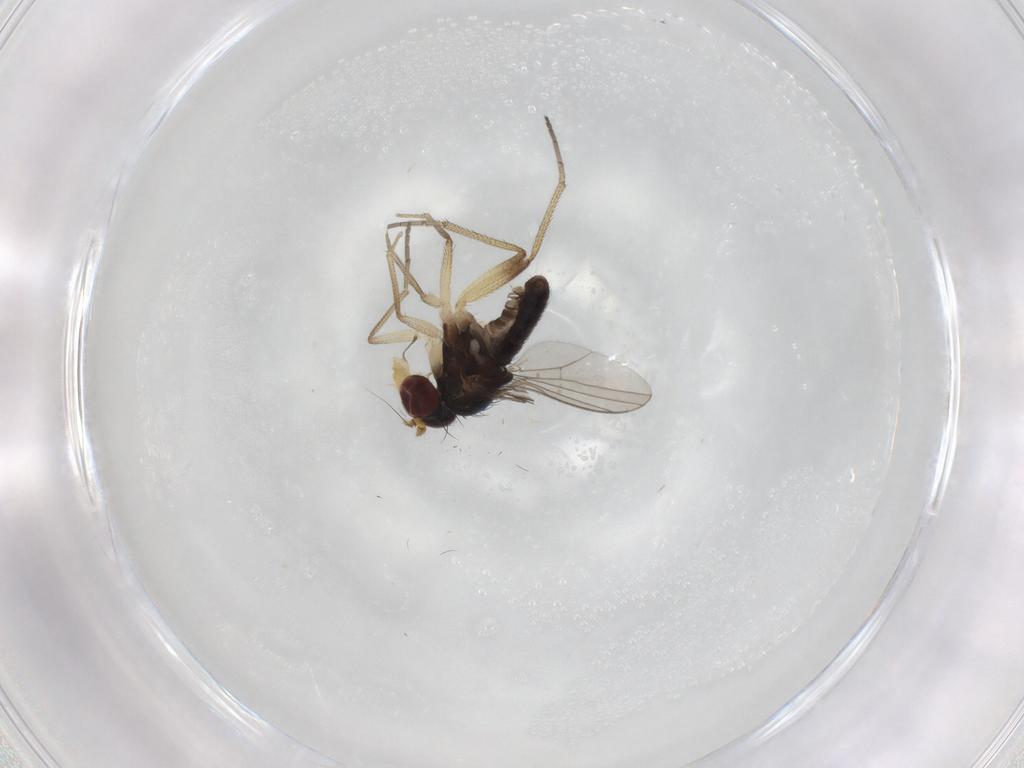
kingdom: Animalia
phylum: Arthropoda
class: Insecta
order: Diptera
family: Dolichopodidae
